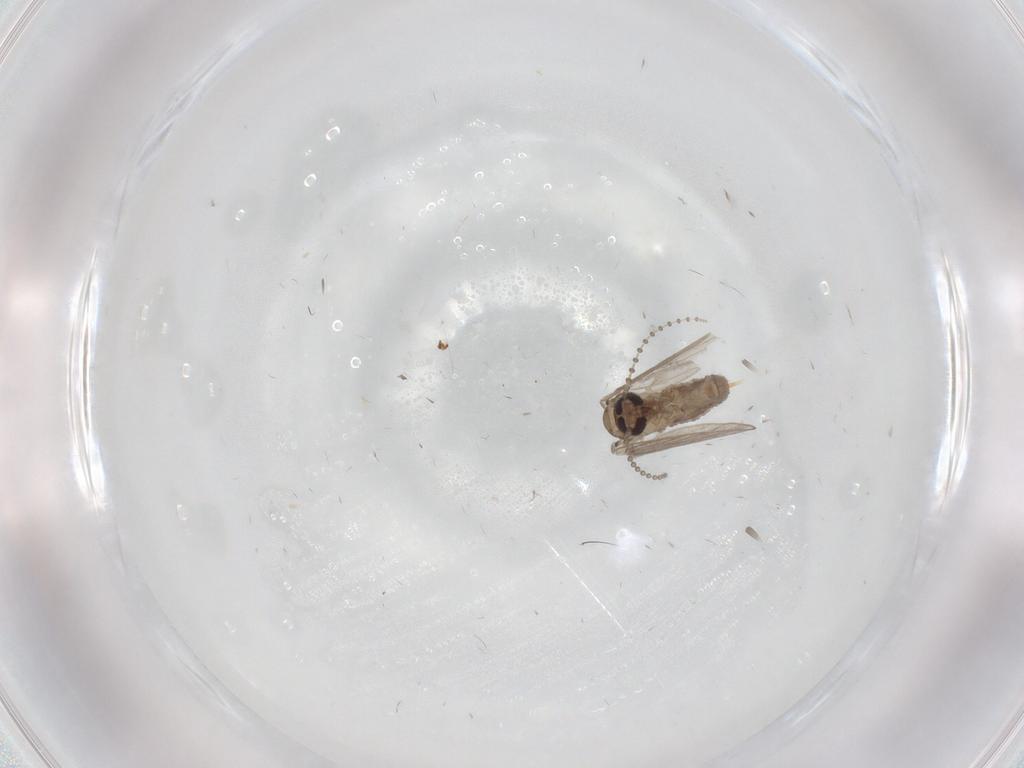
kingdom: Animalia
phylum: Arthropoda
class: Insecta
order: Diptera
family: Psychodidae
